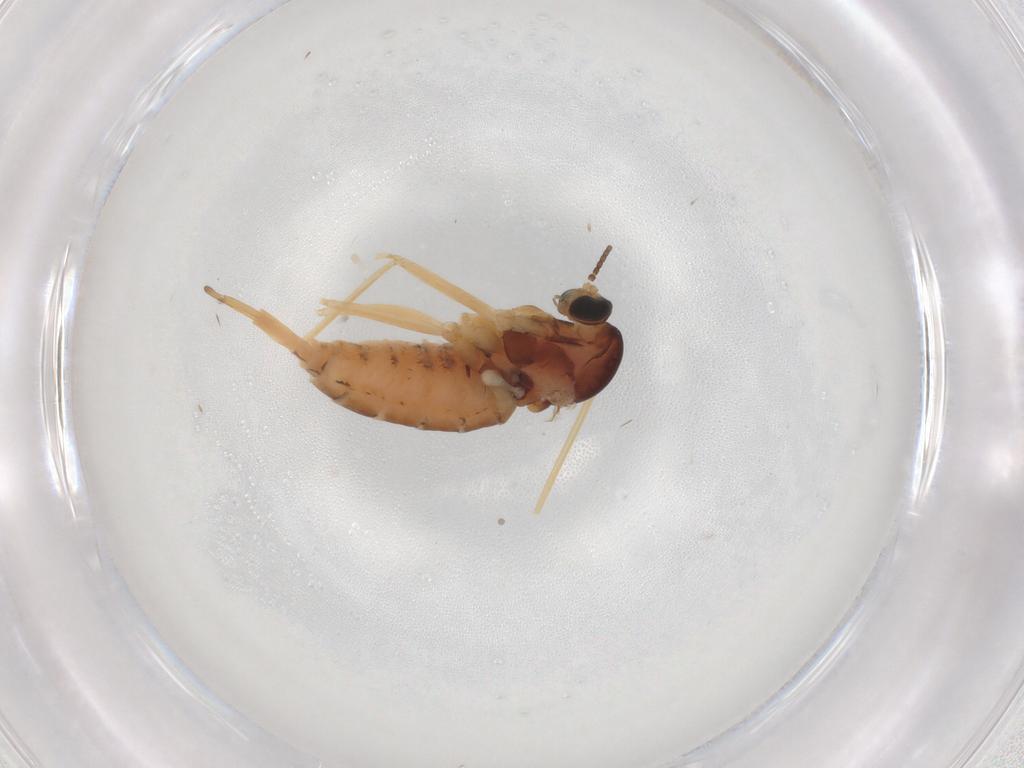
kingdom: Animalia
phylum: Arthropoda
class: Insecta
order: Diptera
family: Cecidomyiidae
